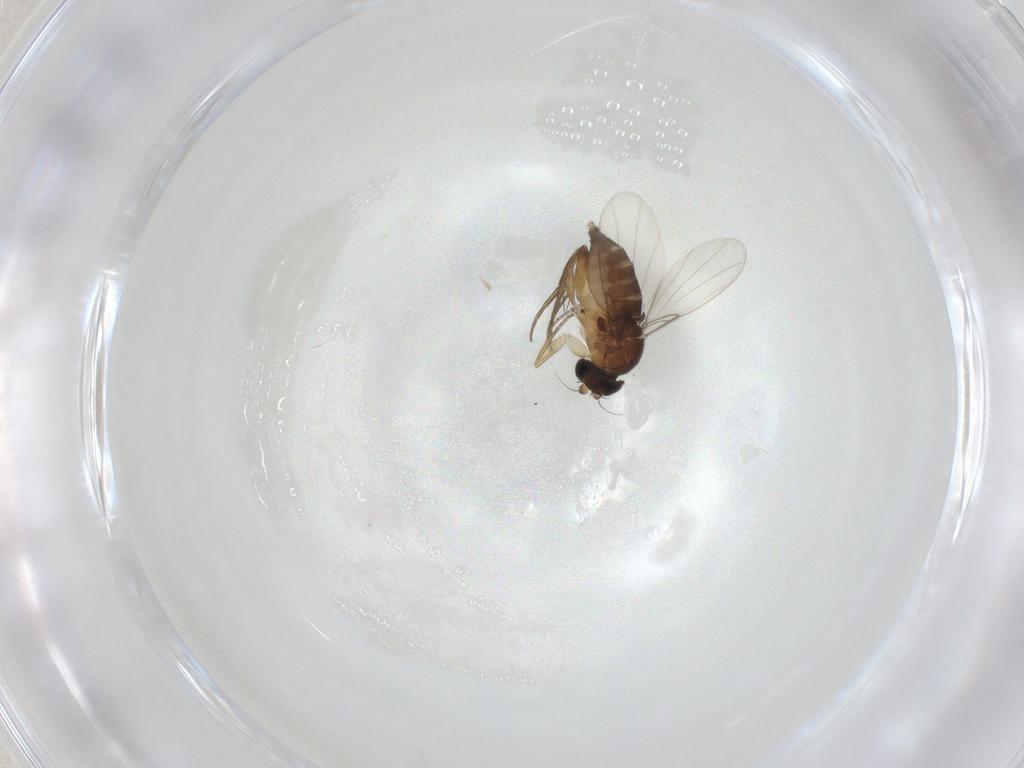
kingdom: Animalia
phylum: Arthropoda
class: Insecta
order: Diptera
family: Phoridae
